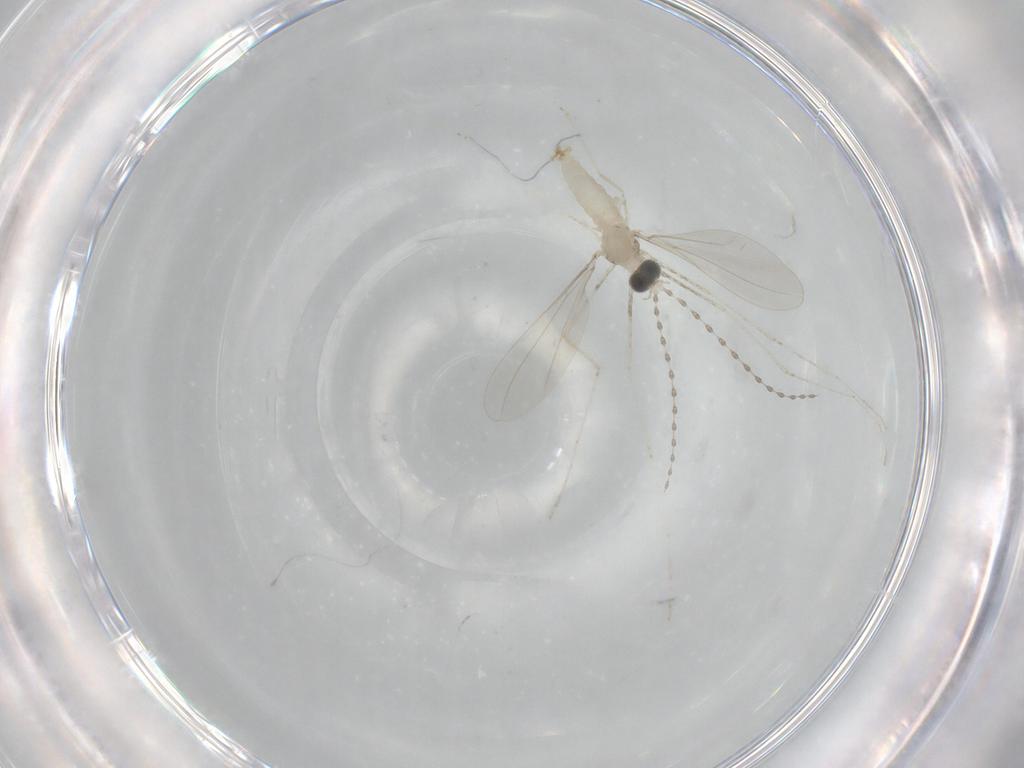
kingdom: Animalia
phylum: Arthropoda
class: Insecta
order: Diptera
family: Cecidomyiidae
